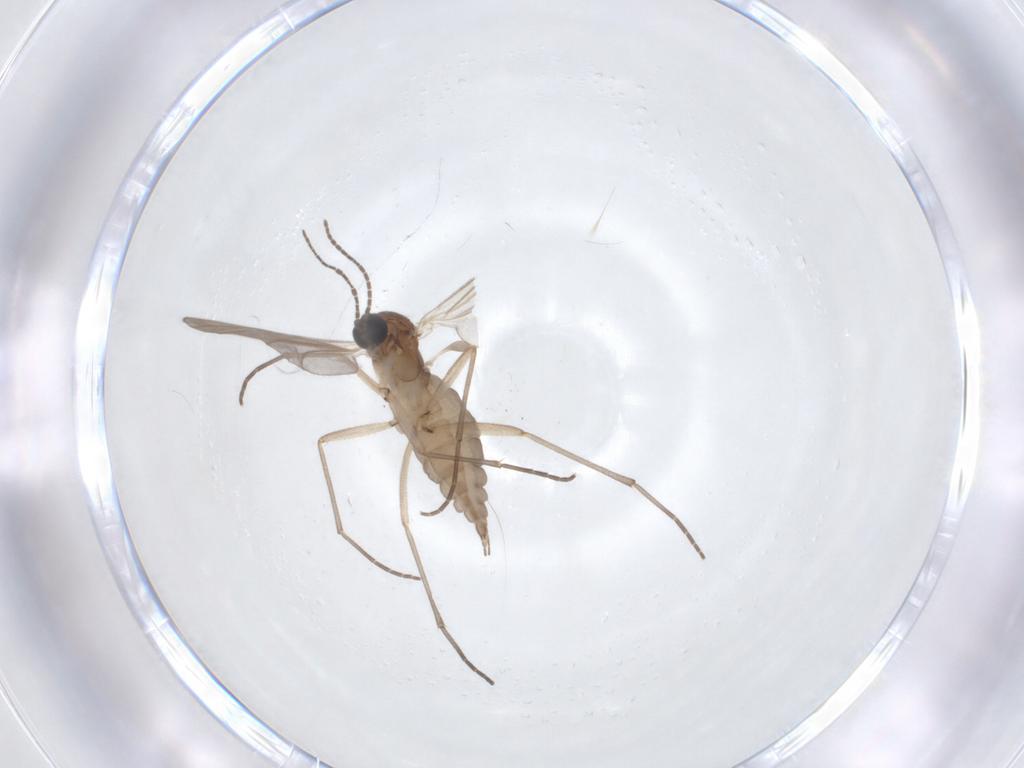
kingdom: Animalia
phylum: Arthropoda
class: Insecta
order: Diptera
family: Sciaridae
